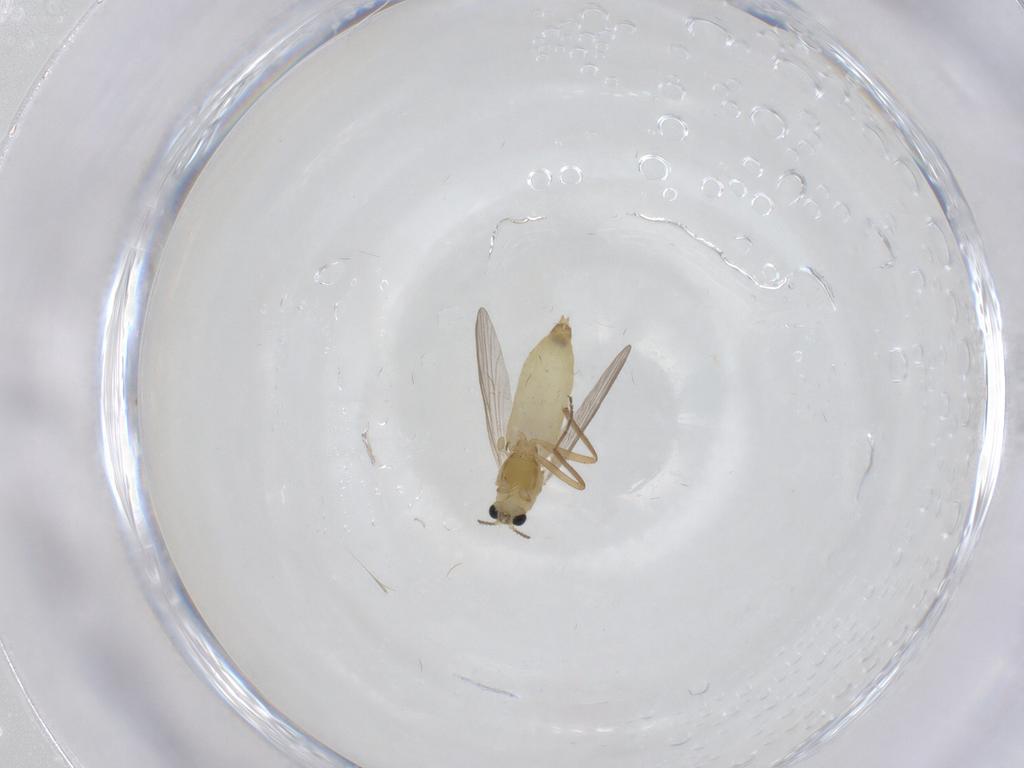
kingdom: Animalia
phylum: Arthropoda
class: Insecta
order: Diptera
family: Chironomidae
